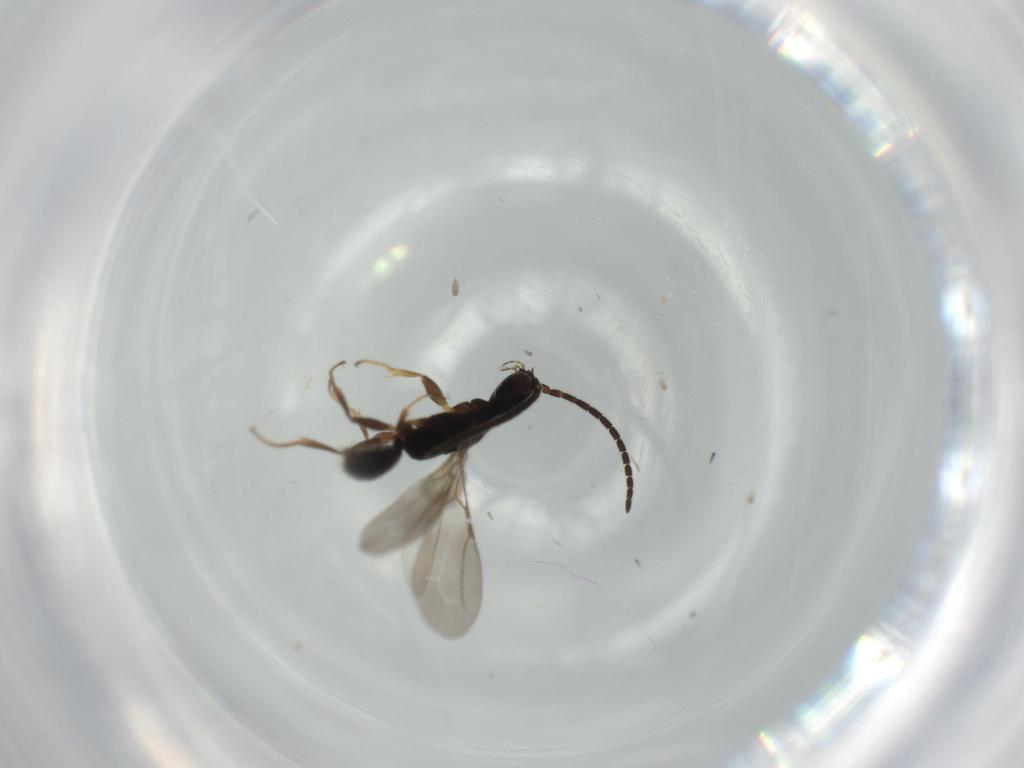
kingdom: Animalia
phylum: Arthropoda
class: Insecta
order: Hymenoptera
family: Bethylidae
